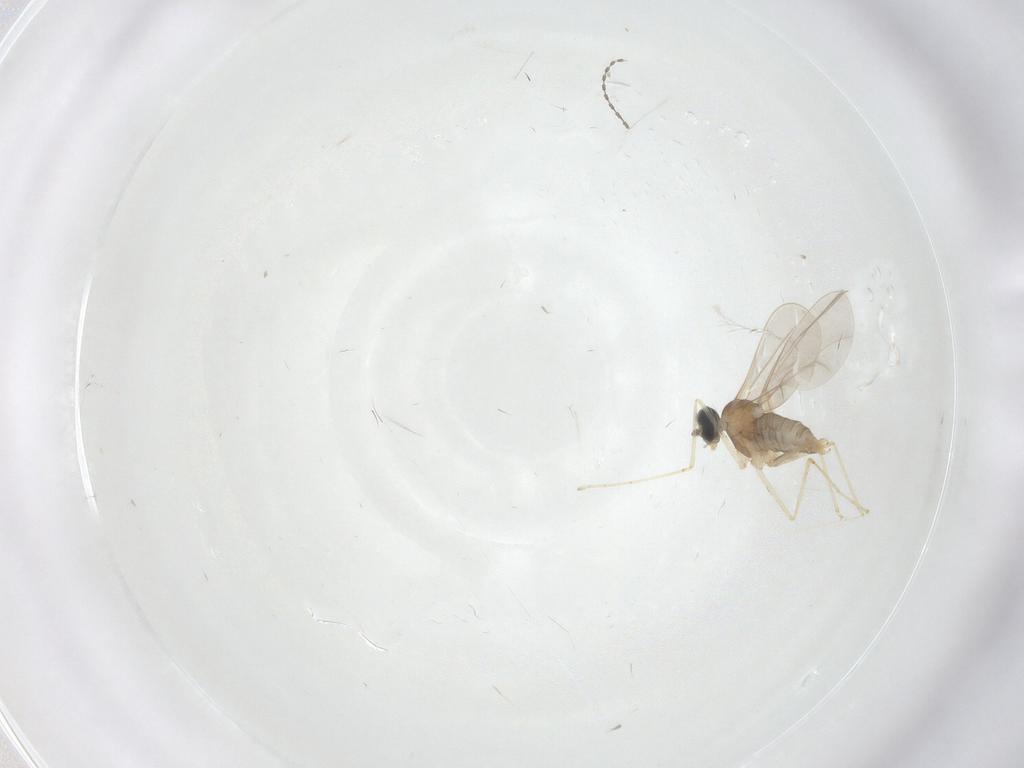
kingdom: Animalia
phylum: Arthropoda
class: Insecta
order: Diptera
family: Cecidomyiidae
